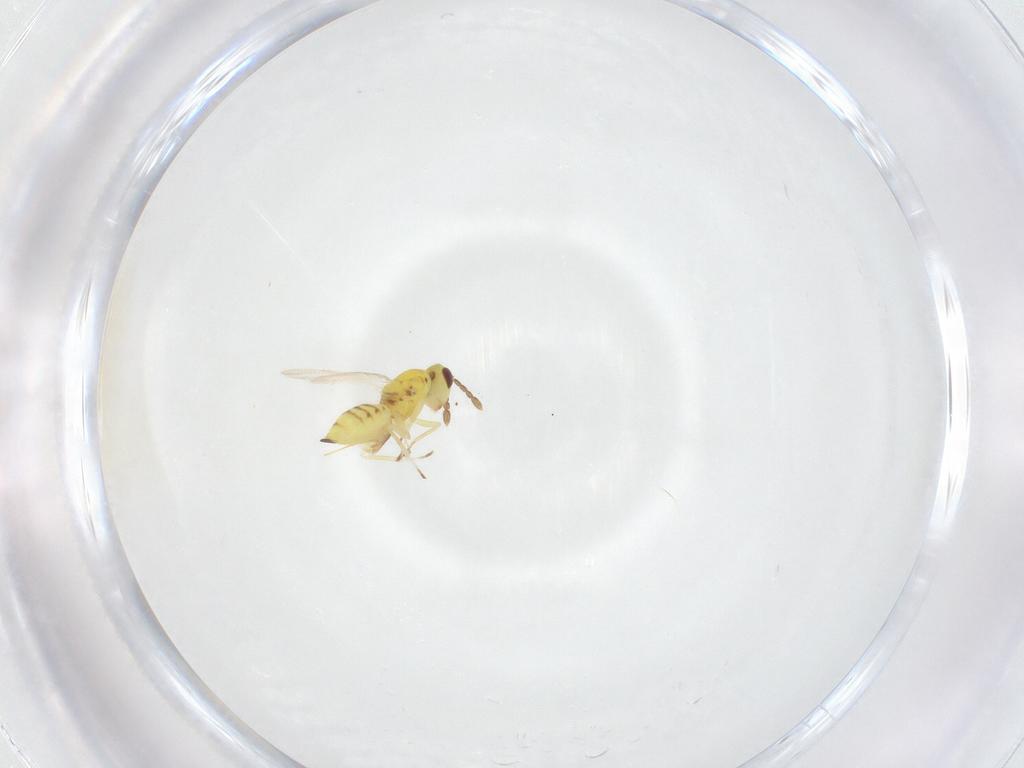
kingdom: Animalia
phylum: Arthropoda
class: Insecta
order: Hymenoptera
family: Eulophidae
